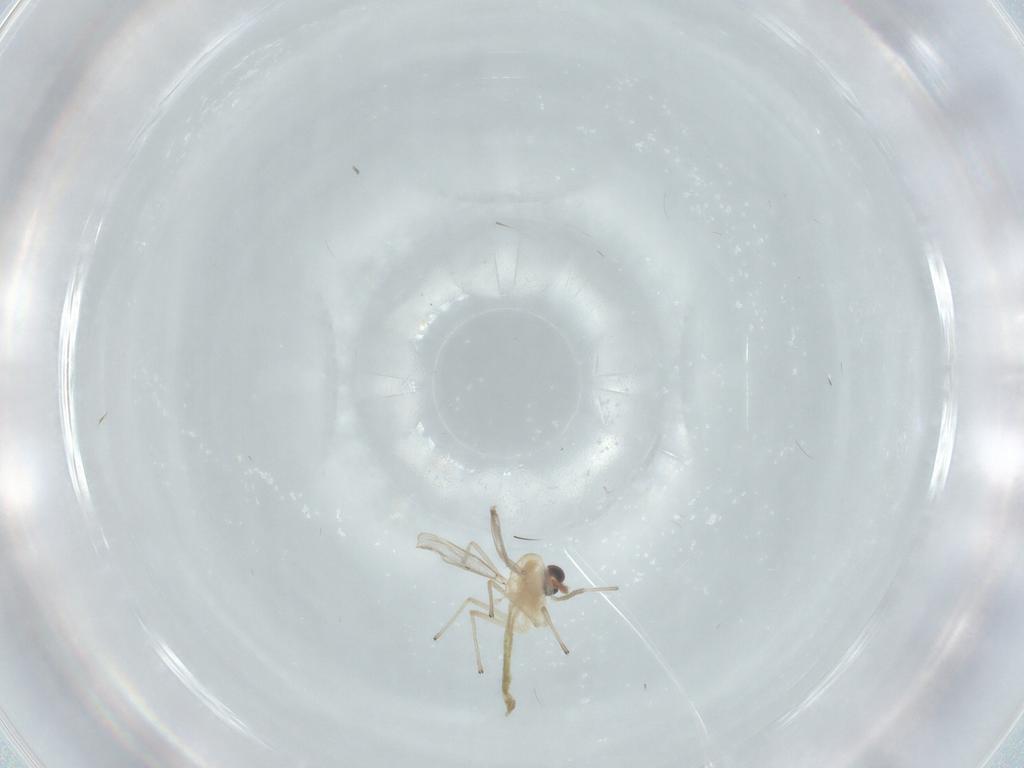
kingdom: Animalia
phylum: Arthropoda
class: Insecta
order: Diptera
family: Chironomidae
